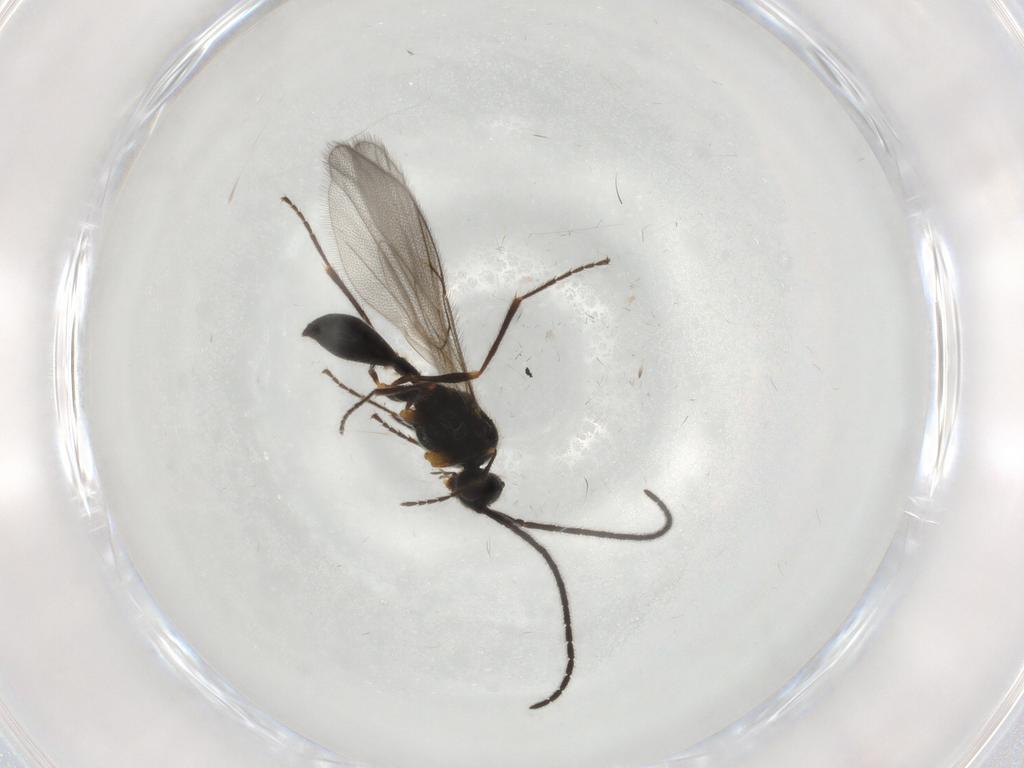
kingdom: Animalia
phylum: Arthropoda
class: Insecta
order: Hymenoptera
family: Diapriidae
